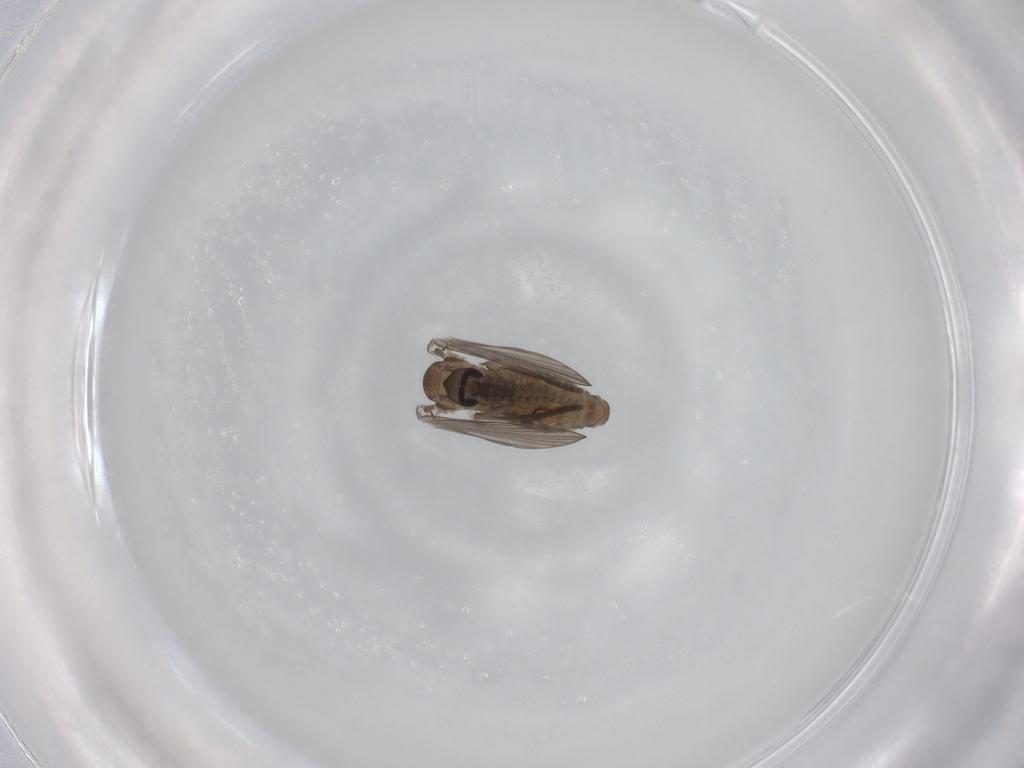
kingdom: Animalia
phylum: Arthropoda
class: Insecta
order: Diptera
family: Psychodidae
